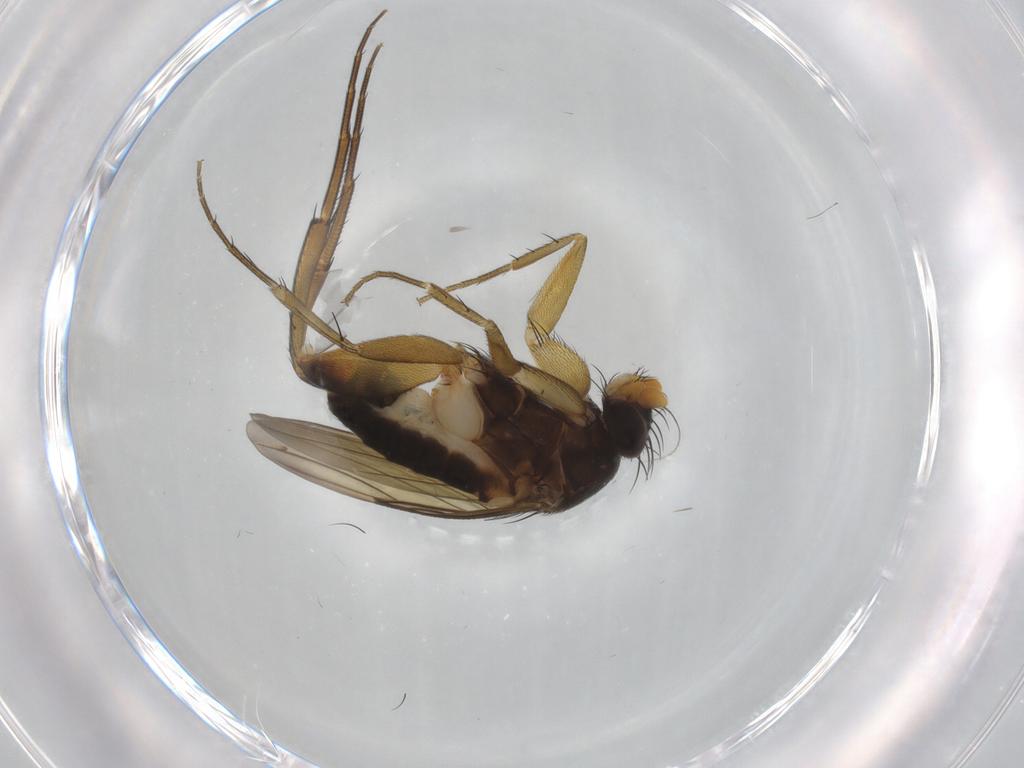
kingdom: Animalia
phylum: Arthropoda
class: Insecta
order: Diptera
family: Phoridae
